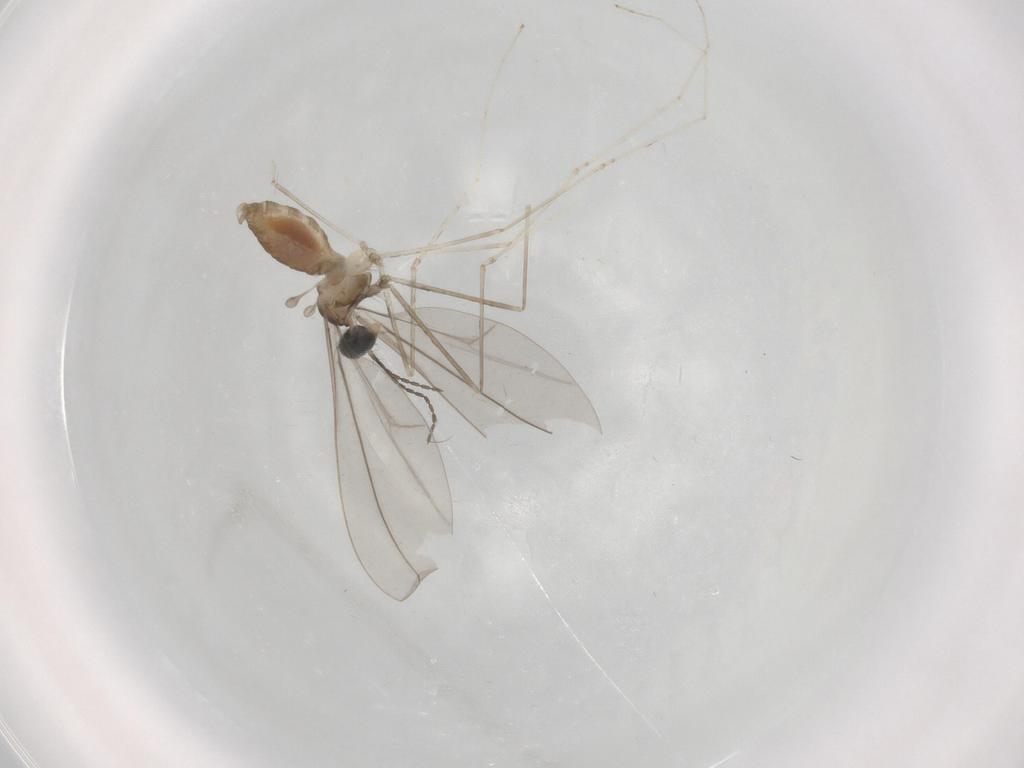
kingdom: Animalia
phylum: Arthropoda
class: Insecta
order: Diptera
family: Cecidomyiidae
